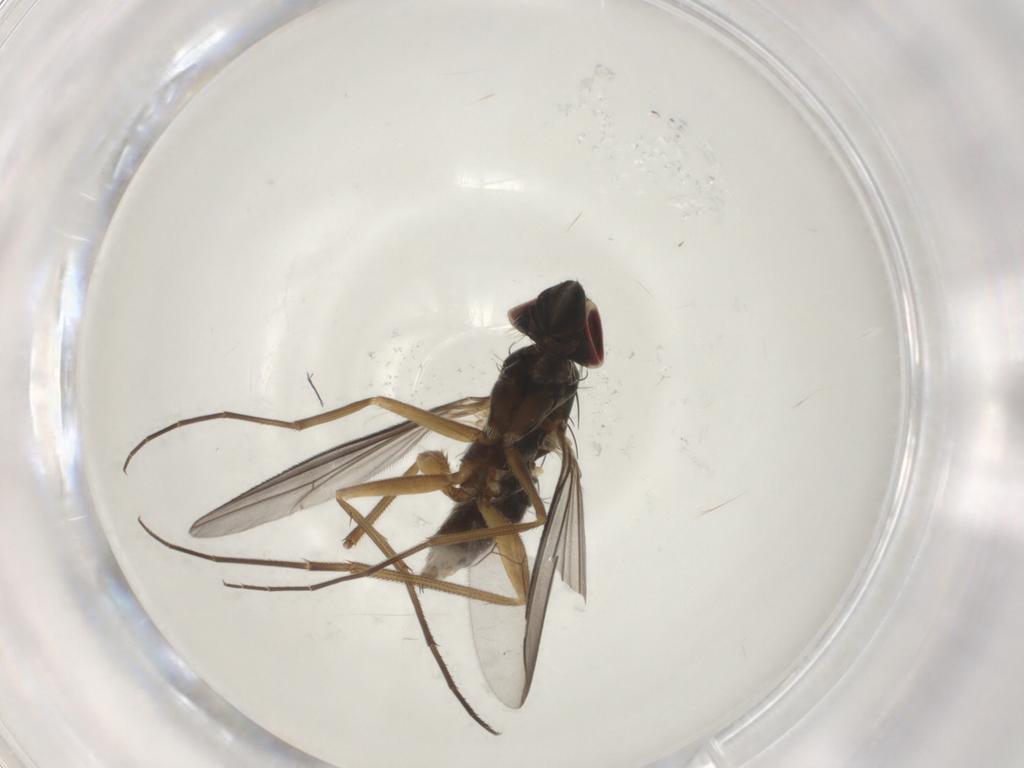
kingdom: Animalia
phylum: Arthropoda
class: Insecta
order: Diptera
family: Dolichopodidae
